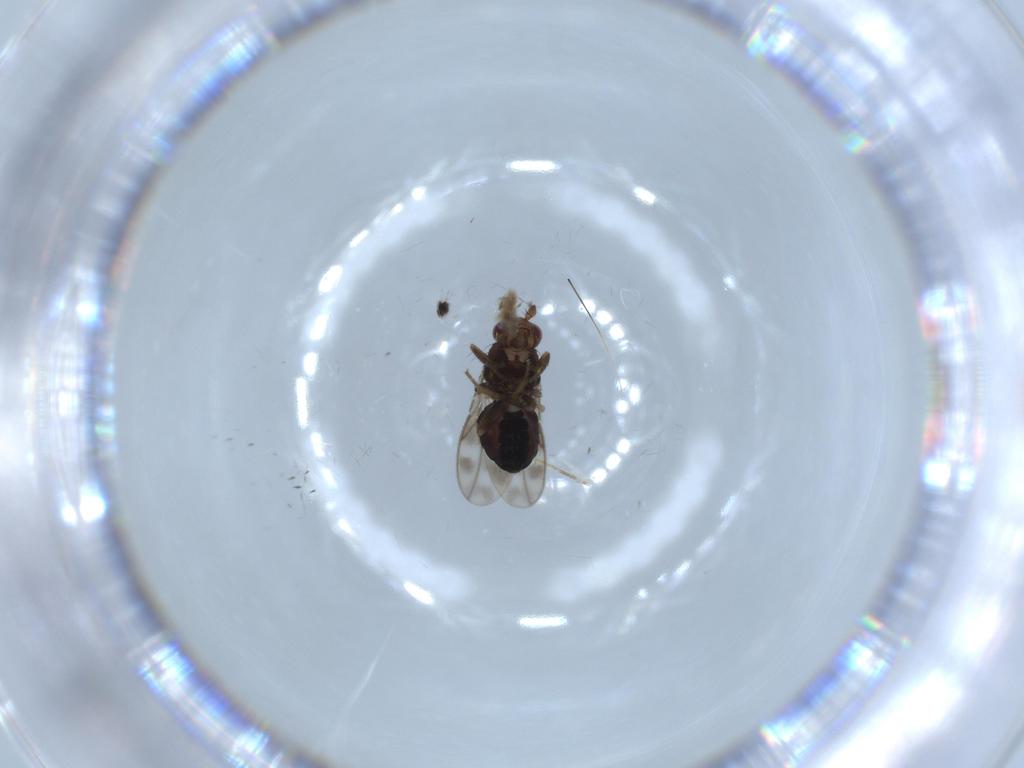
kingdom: Animalia
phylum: Arthropoda
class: Insecta
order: Diptera
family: Sphaeroceridae
